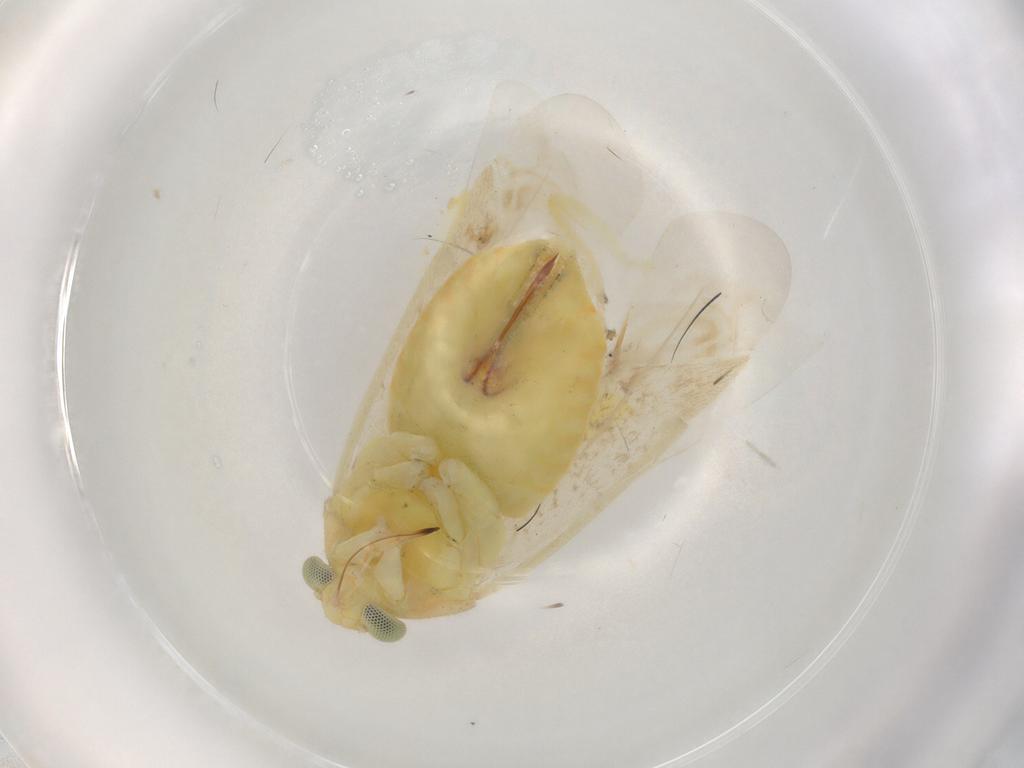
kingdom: Animalia
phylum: Arthropoda
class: Insecta
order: Hemiptera
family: Miridae
